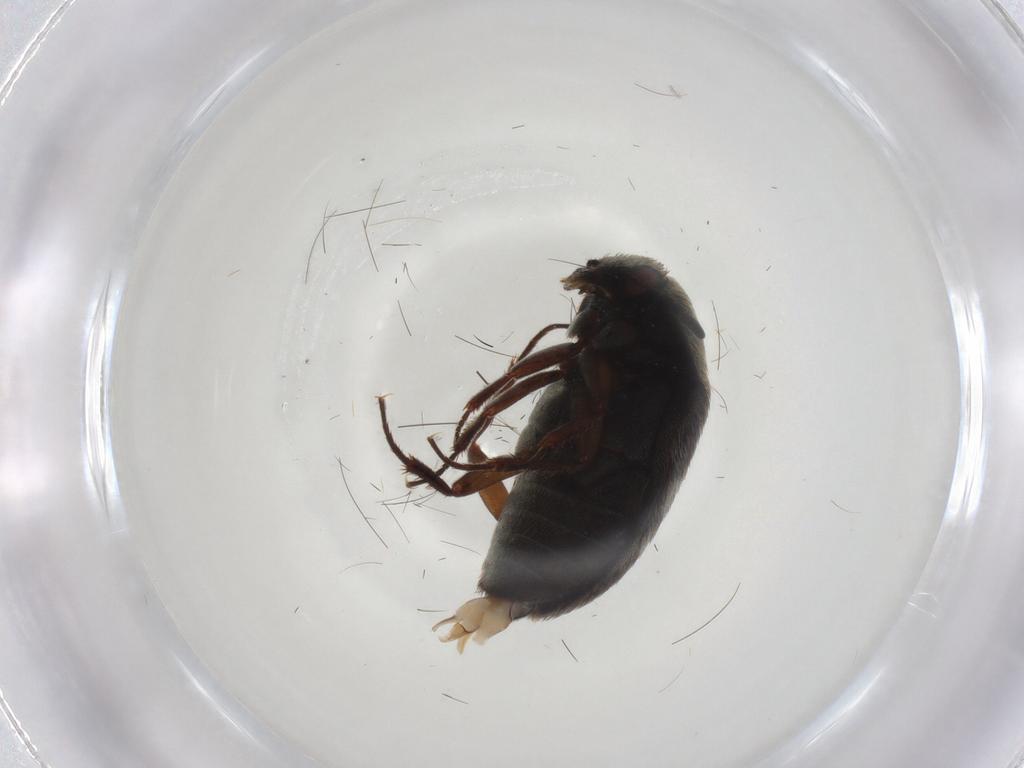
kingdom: Animalia
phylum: Arthropoda
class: Insecta
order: Coleoptera
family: Dermestidae
